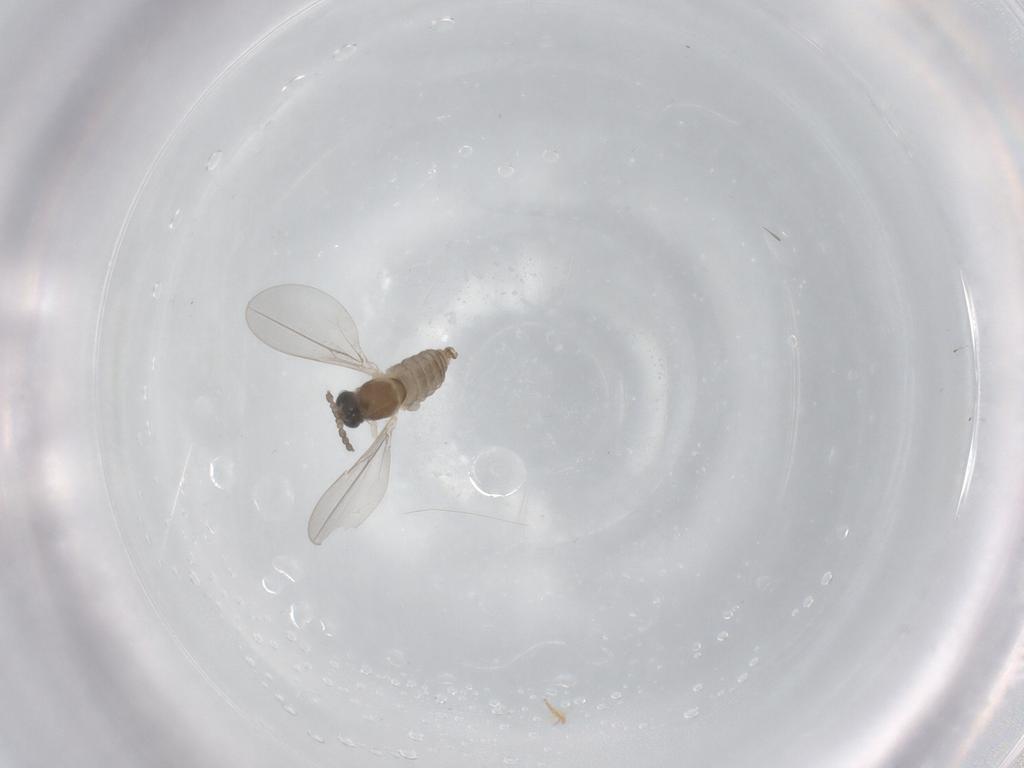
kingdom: Animalia
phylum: Arthropoda
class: Insecta
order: Diptera
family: Cecidomyiidae
